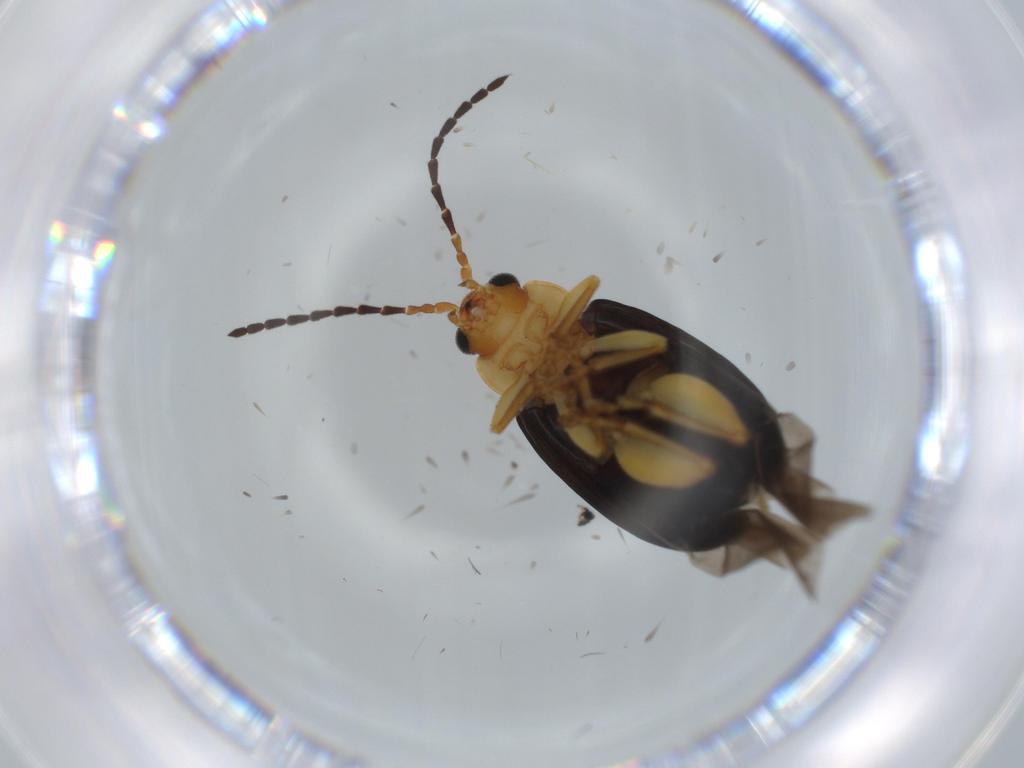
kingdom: Animalia
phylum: Arthropoda
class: Insecta
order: Coleoptera
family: Chrysomelidae
